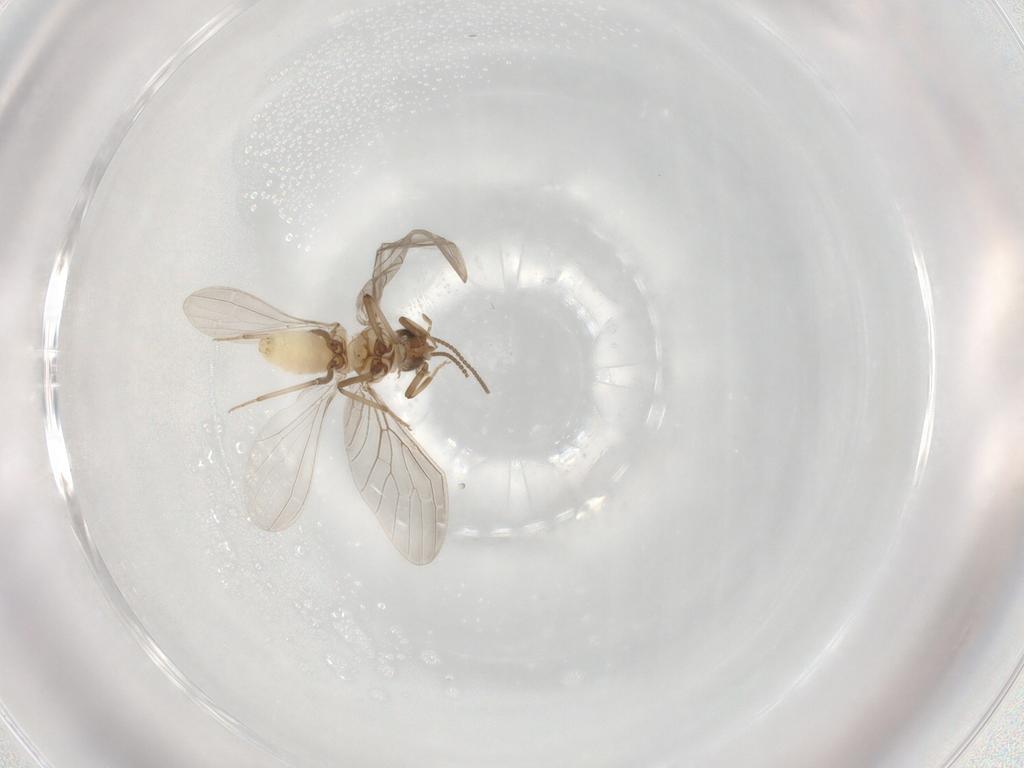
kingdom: Animalia
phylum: Arthropoda
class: Insecta
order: Neuroptera
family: Coniopterygidae
